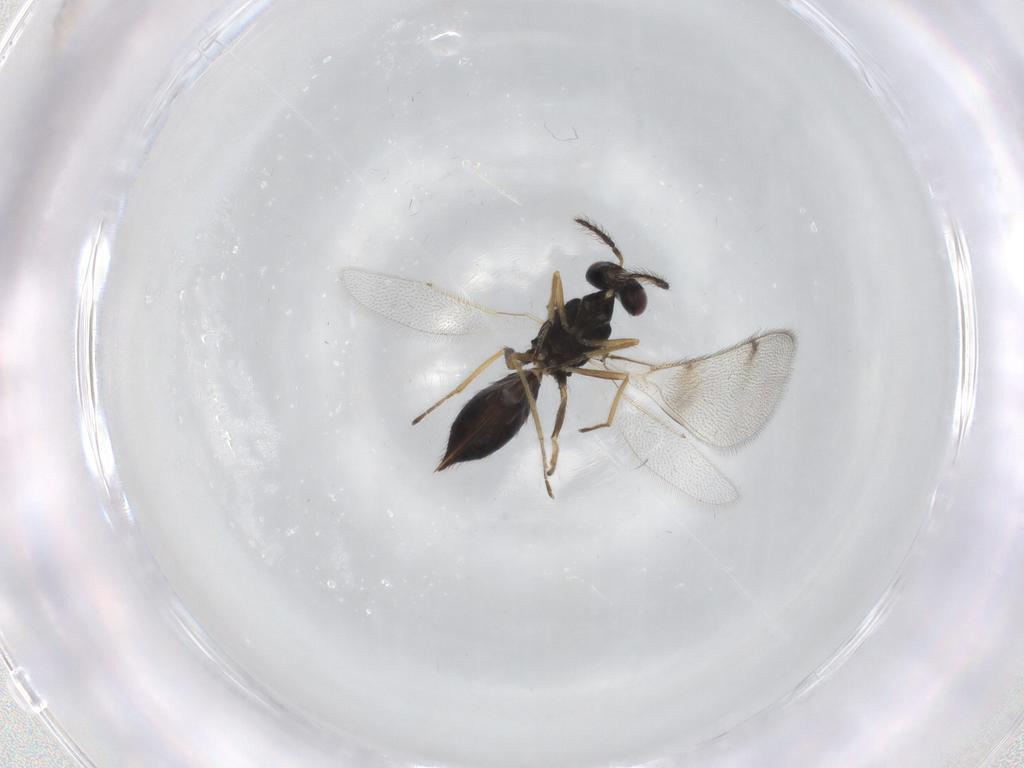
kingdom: Animalia
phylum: Arthropoda
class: Insecta
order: Hymenoptera
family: Eulophidae
